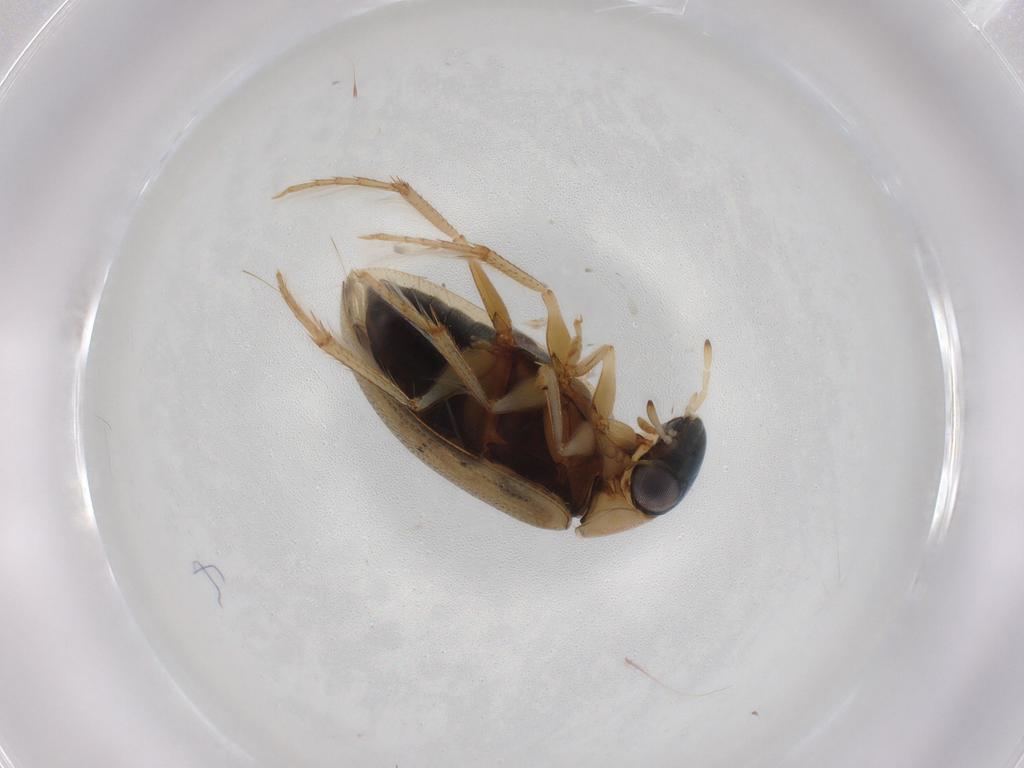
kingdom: Animalia
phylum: Arthropoda
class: Insecta
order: Coleoptera
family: Hydrophilidae
